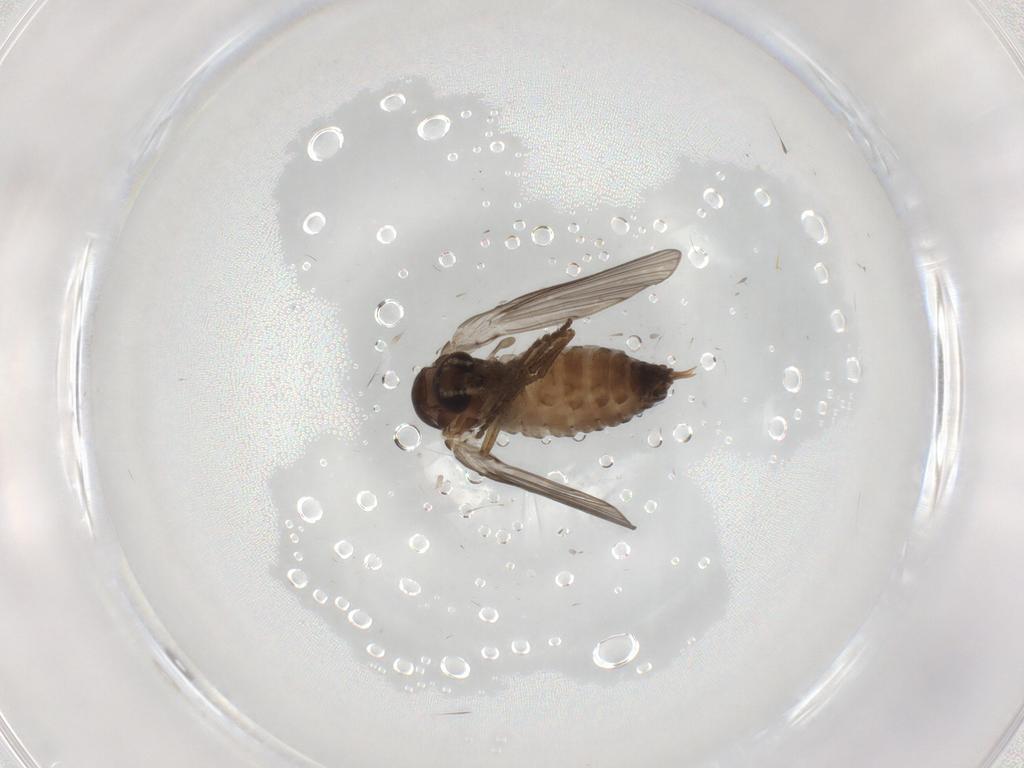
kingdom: Animalia
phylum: Arthropoda
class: Insecta
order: Diptera
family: Psychodidae
